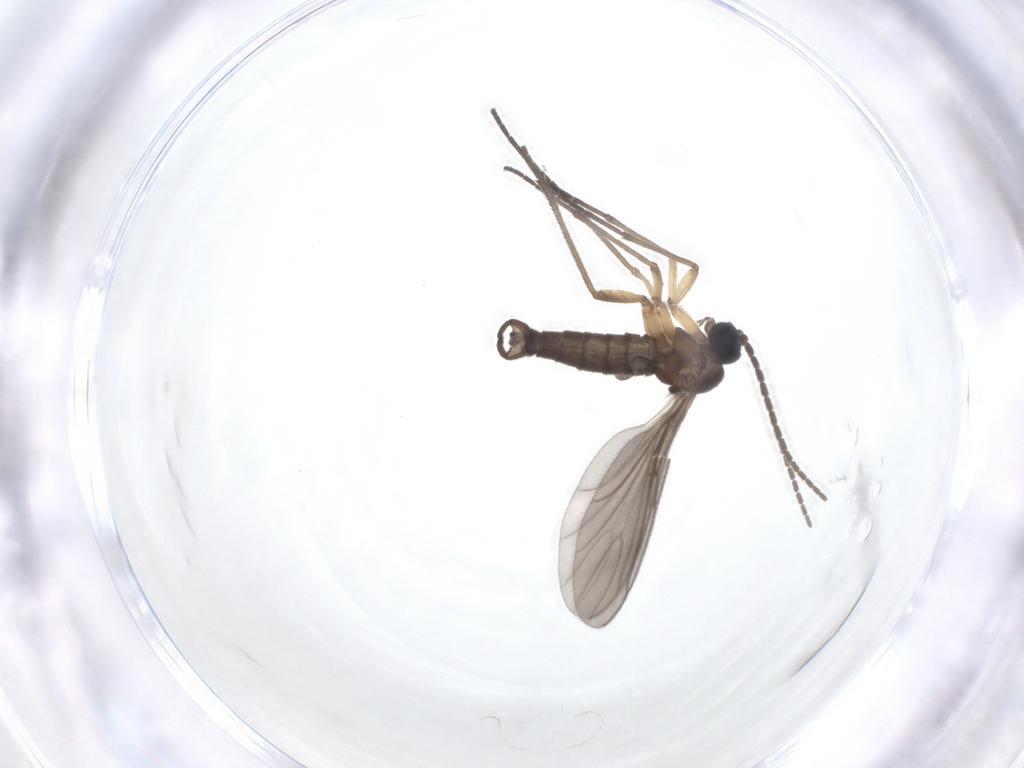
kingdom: Animalia
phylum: Arthropoda
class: Insecta
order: Diptera
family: Sciaridae
